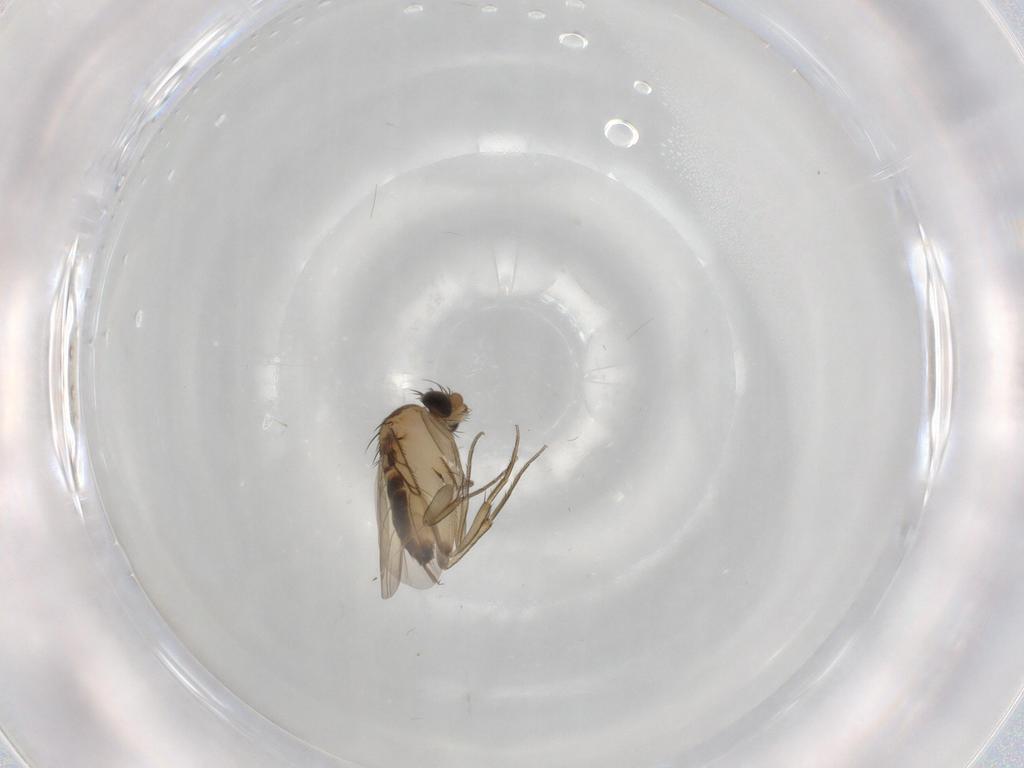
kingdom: Animalia
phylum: Arthropoda
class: Insecta
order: Diptera
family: Phoridae
